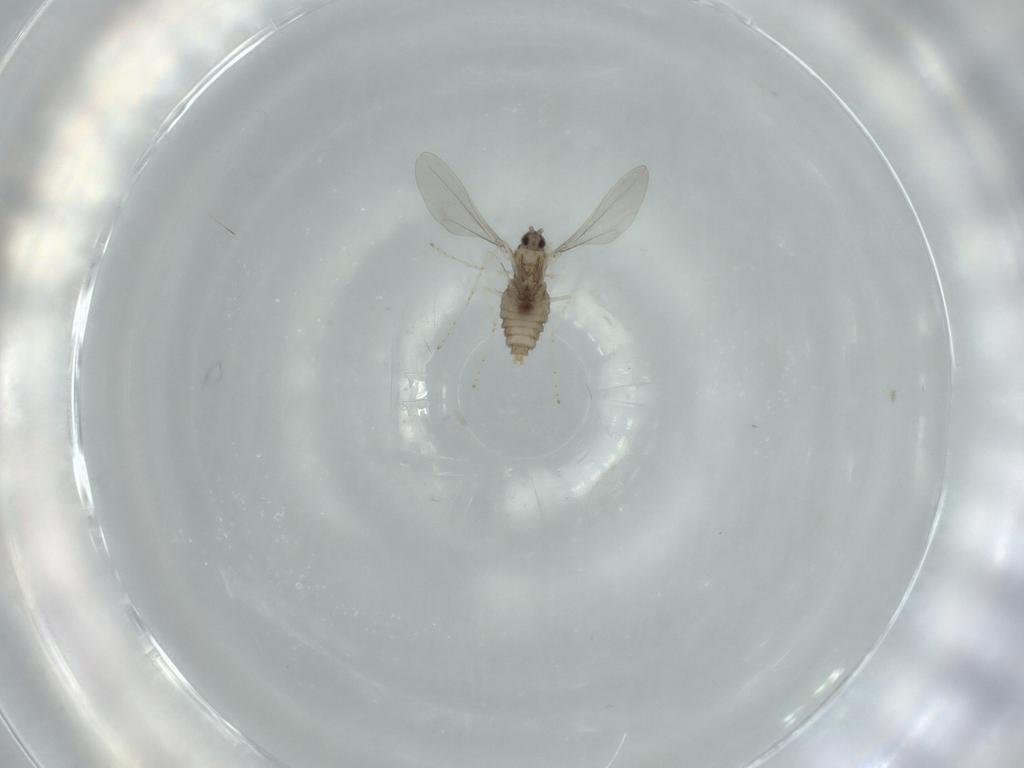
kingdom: Animalia
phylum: Arthropoda
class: Insecta
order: Diptera
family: Cecidomyiidae
